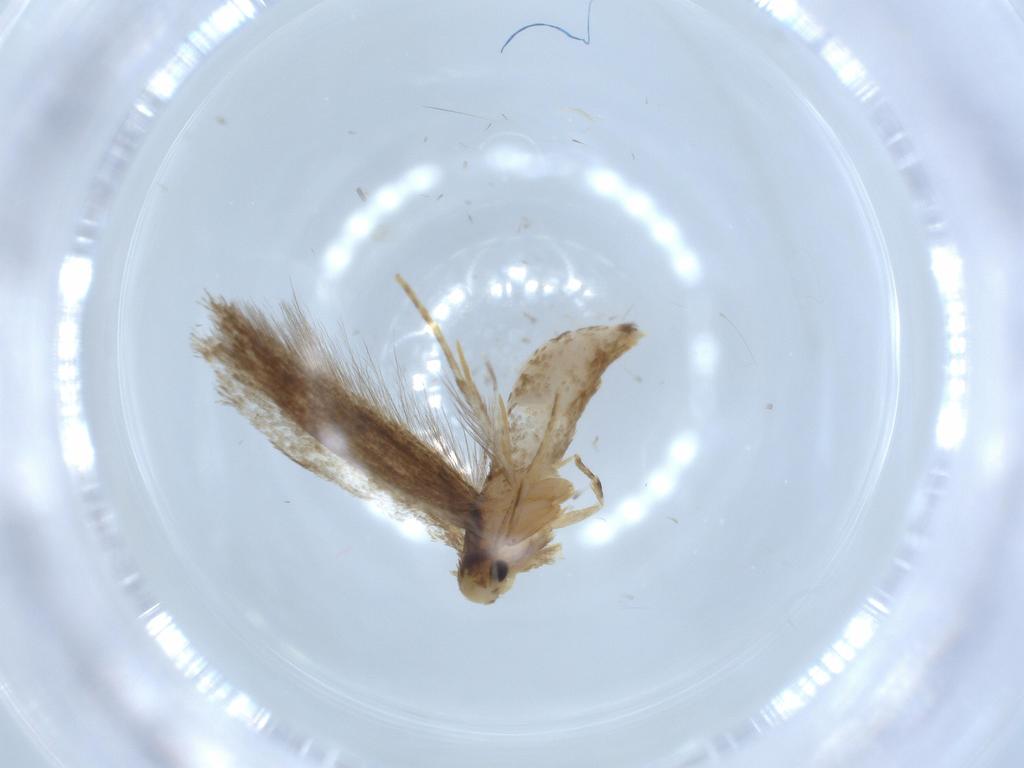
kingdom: Animalia
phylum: Arthropoda
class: Insecta
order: Lepidoptera
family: Tineidae
